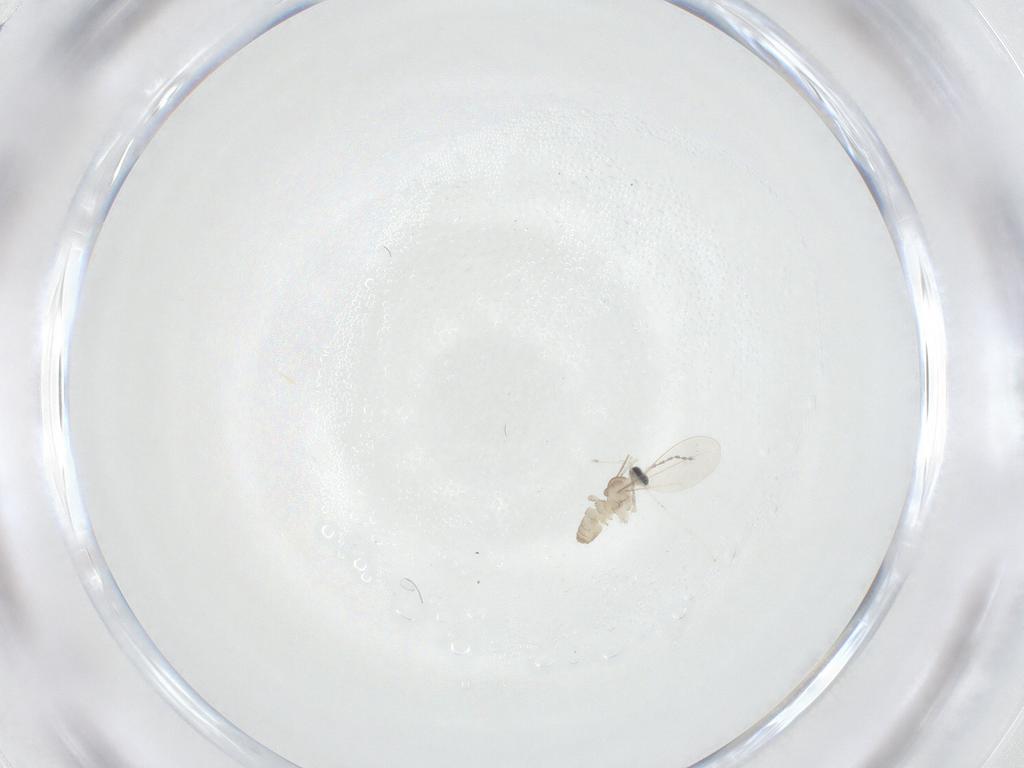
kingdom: Animalia
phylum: Arthropoda
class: Insecta
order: Diptera
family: Cecidomyiidae
